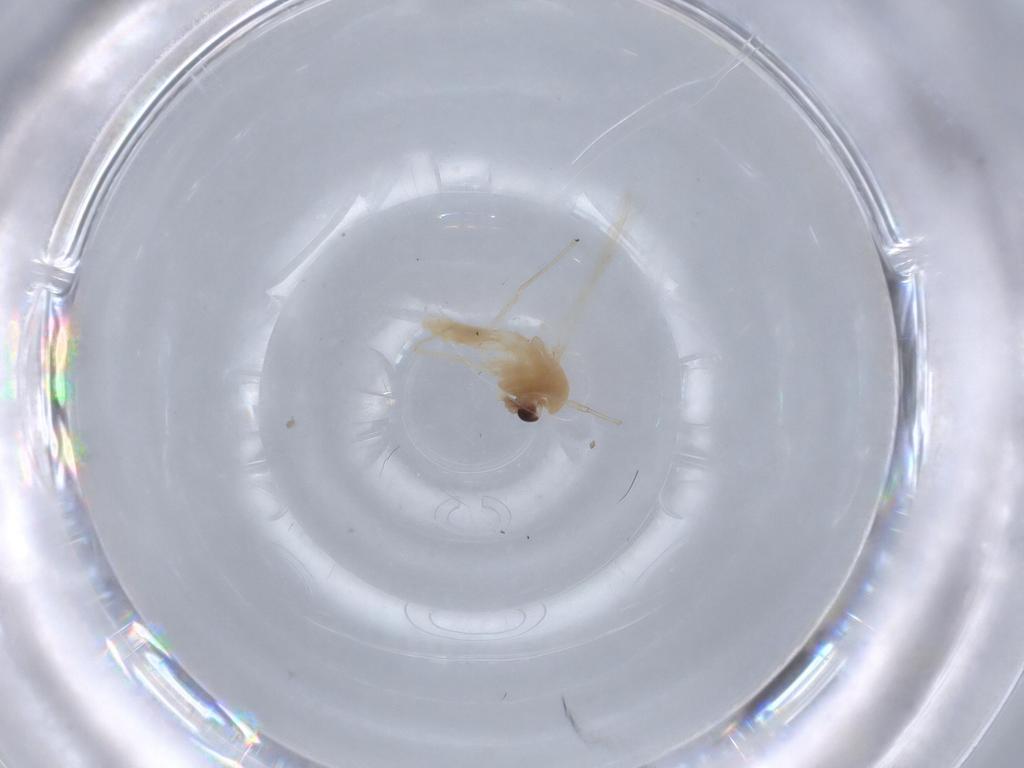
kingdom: Animalia
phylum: Arthropoda
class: Insecta
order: Diptera
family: Chironomidae
